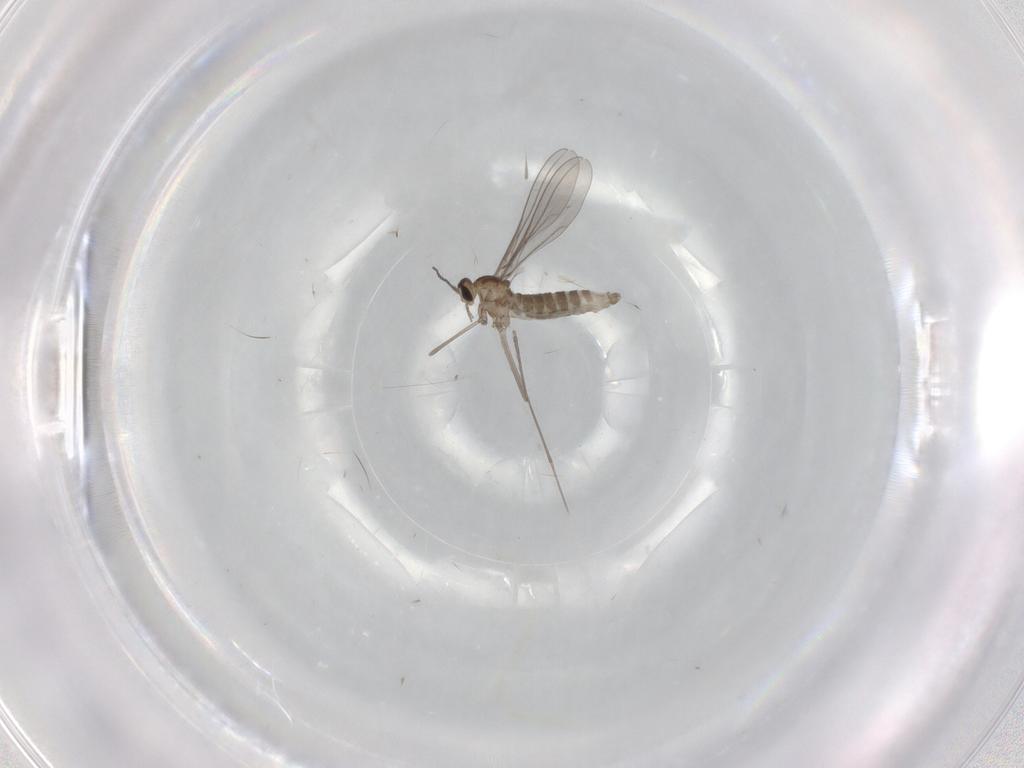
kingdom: Animalia
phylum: Arthropoda
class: Insecta
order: Diptera
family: Cecidomyiidae
